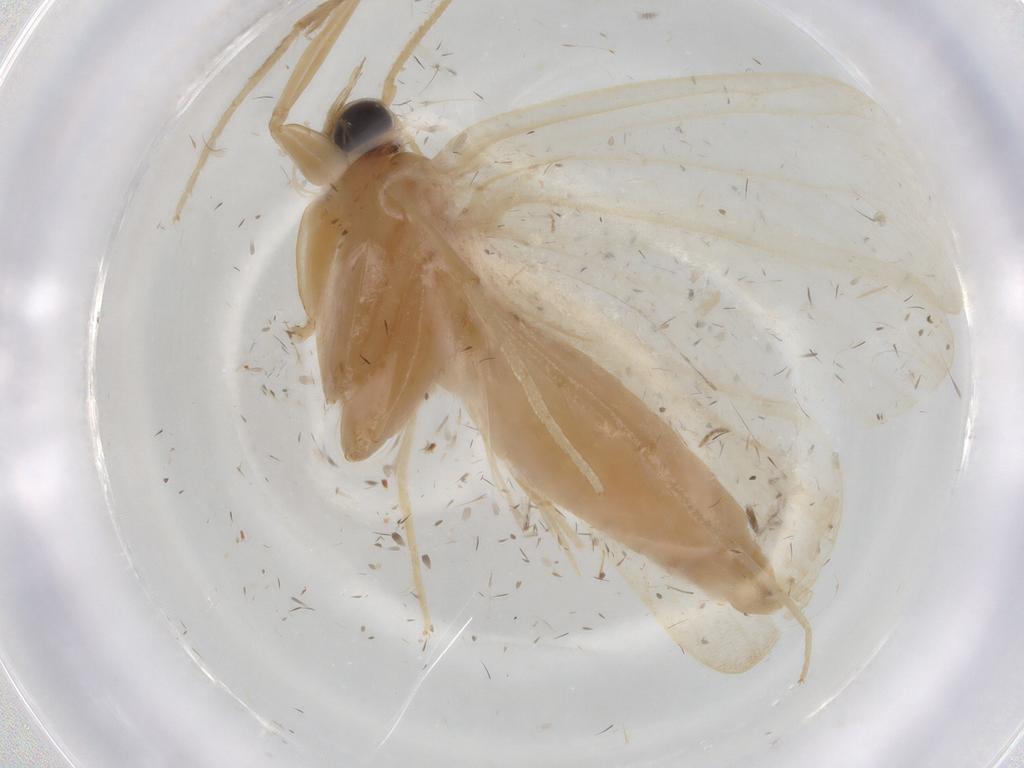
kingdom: Animalia
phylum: Arthropoda
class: Insecta
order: Lepidoptera
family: Crambidae
